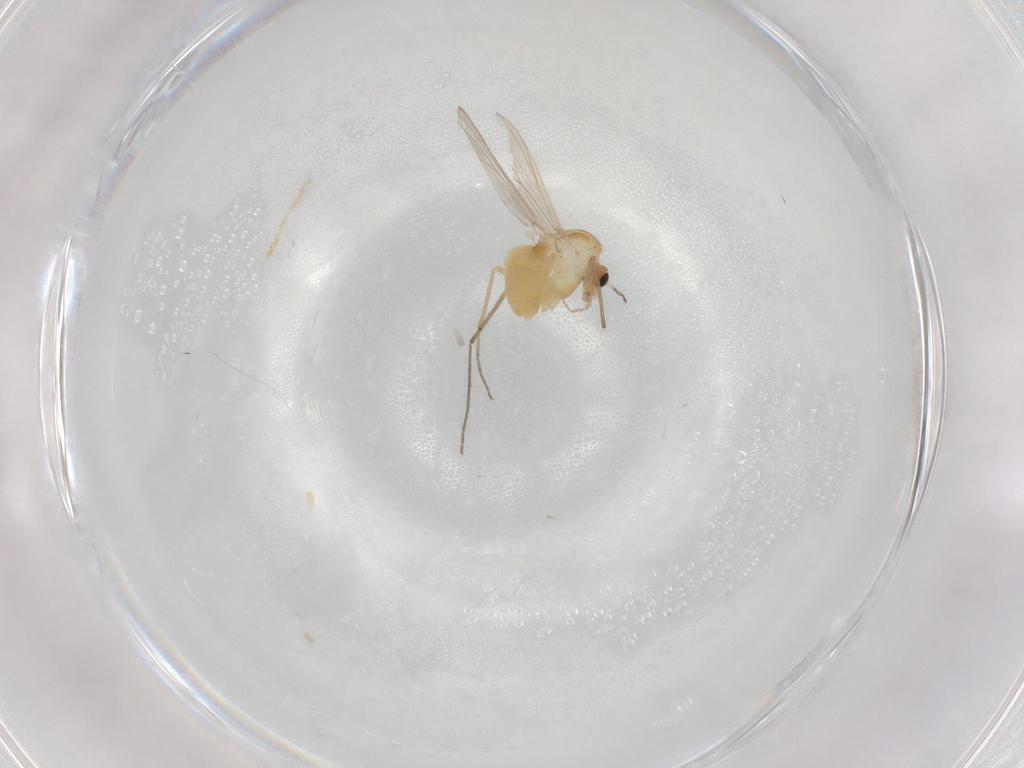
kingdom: Animalia
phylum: Arthropoda
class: Insecta
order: Diptera
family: Chironomidae
